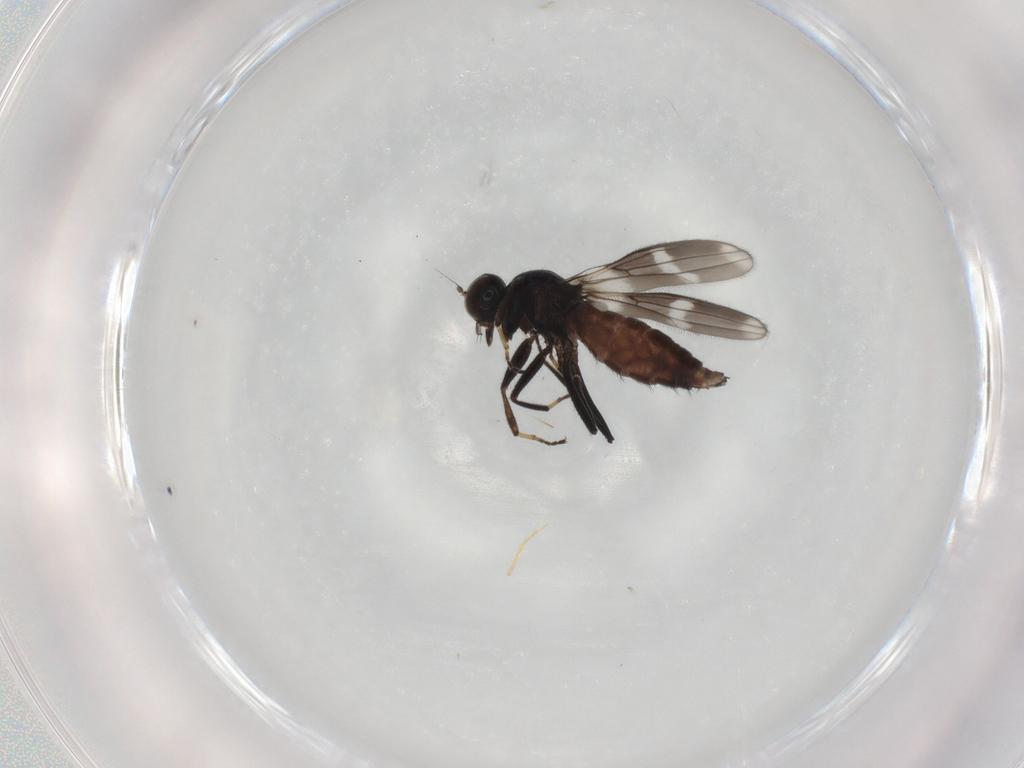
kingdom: Animalia
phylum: Arthropoda
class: Insecta
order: Diptera
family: Hybotidae
